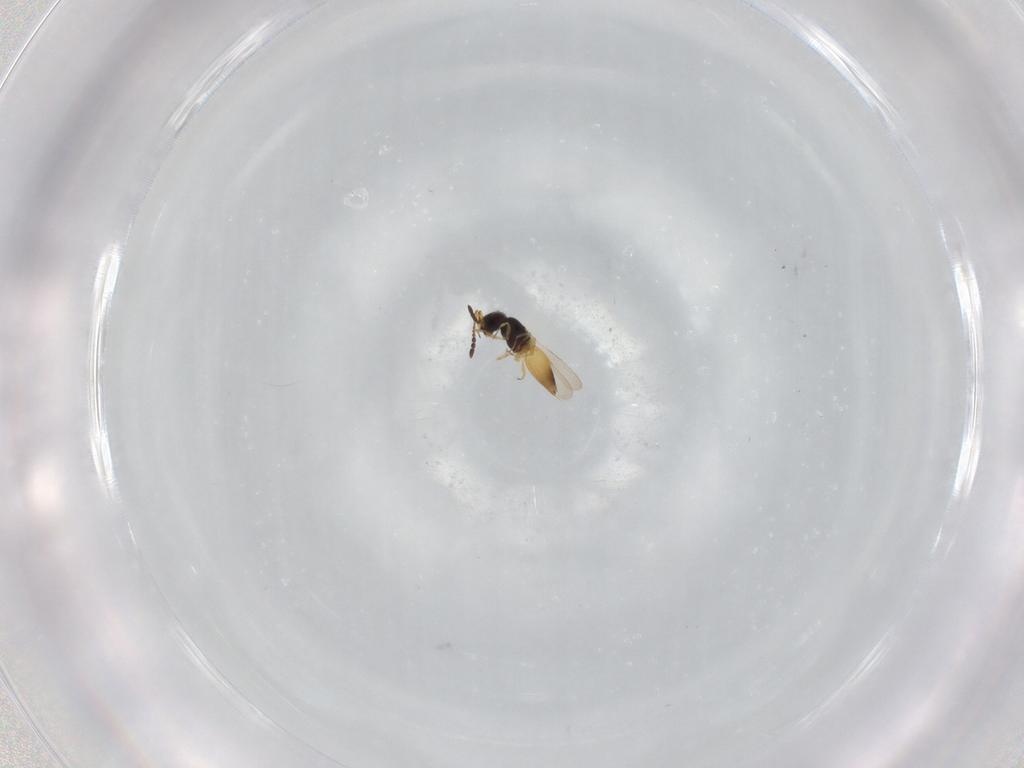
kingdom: Animalia
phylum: Arthropoda
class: Insecta
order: Hymenoptera
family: Ceraphronidae
